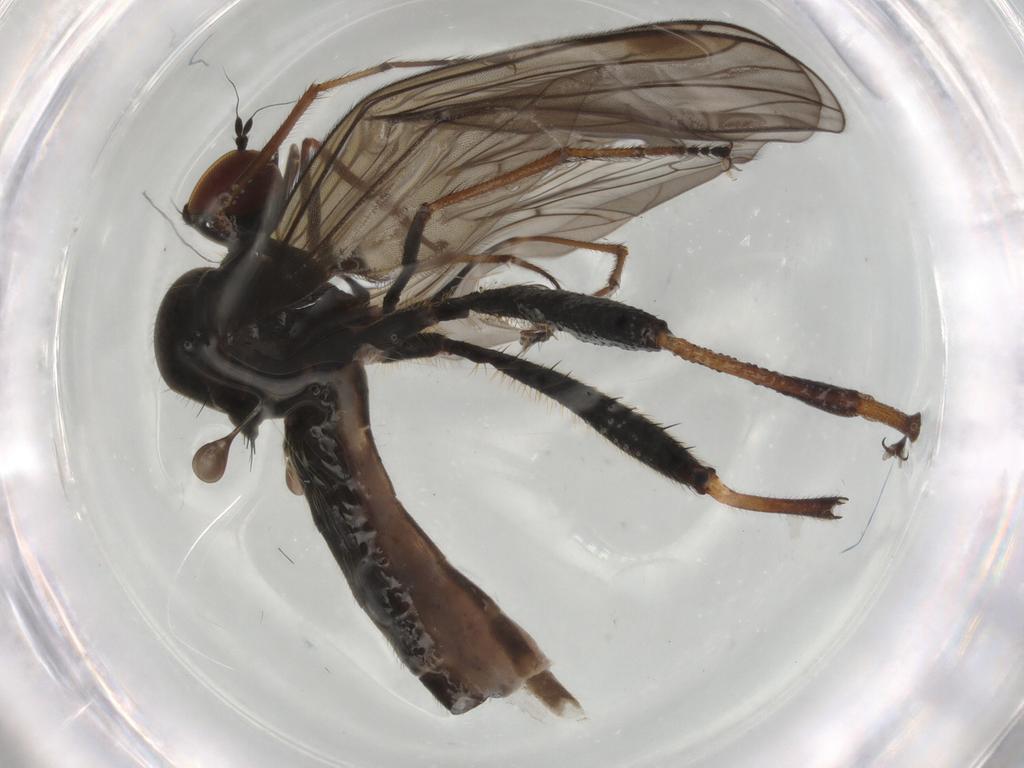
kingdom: Animalia
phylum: Arthropoda
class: Insecta
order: Diptera
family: Hybotidae
